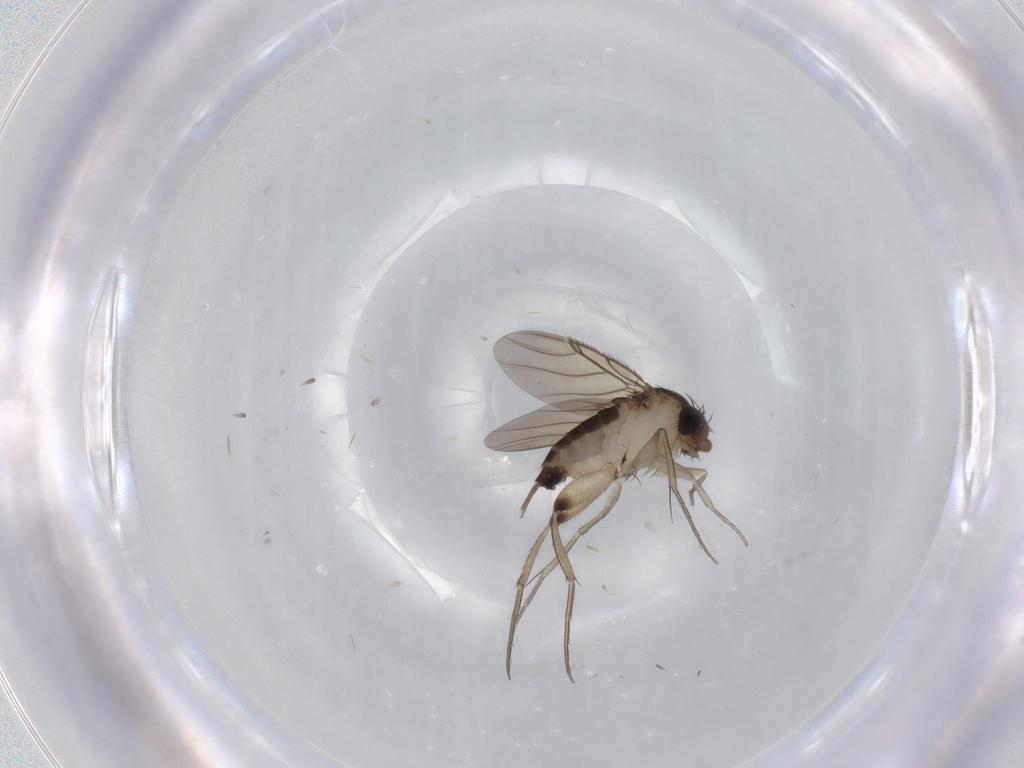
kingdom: Animalia
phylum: Arthropoda
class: Insecta
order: Diptera
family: Phoridae
